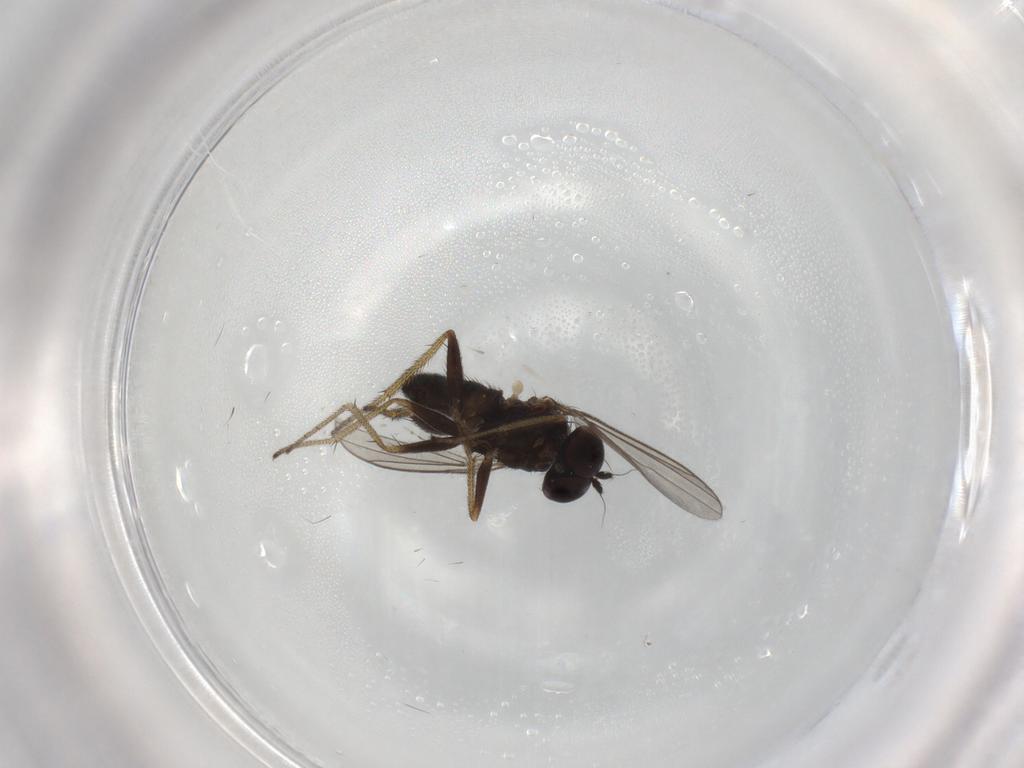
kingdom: Animalia
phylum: Arthropoda
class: Insecta
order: Diptera
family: Dolichopodidae
